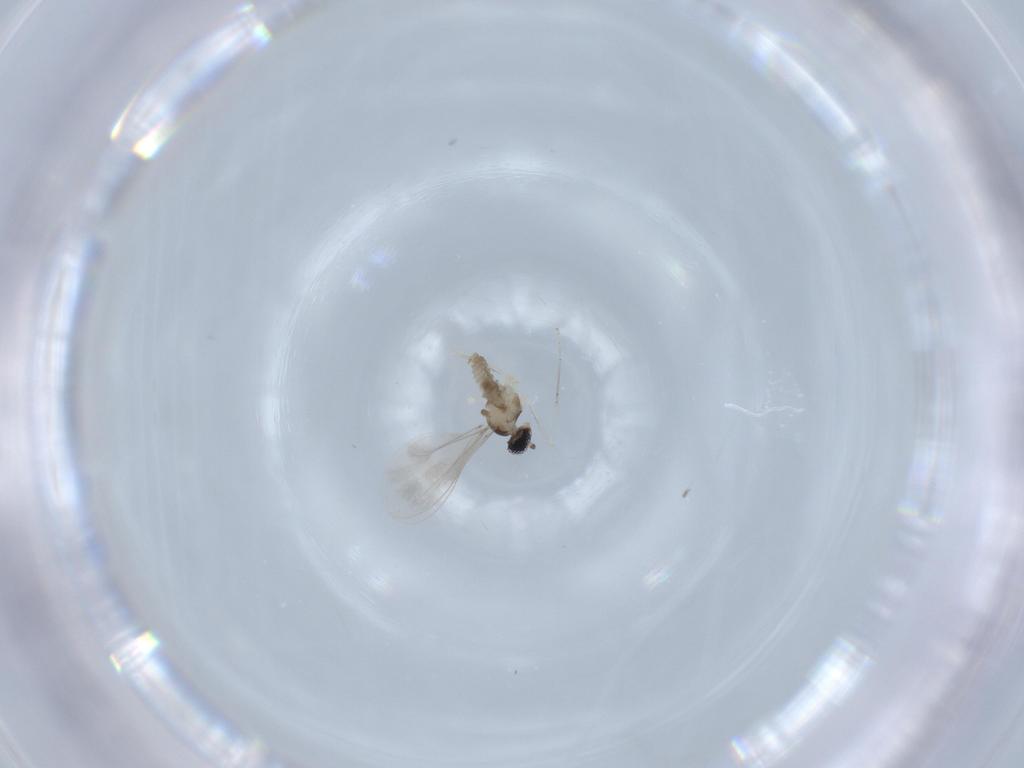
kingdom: Animalia
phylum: Arthropoda
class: Insecta
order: Diptera
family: Cecidomyiidae
